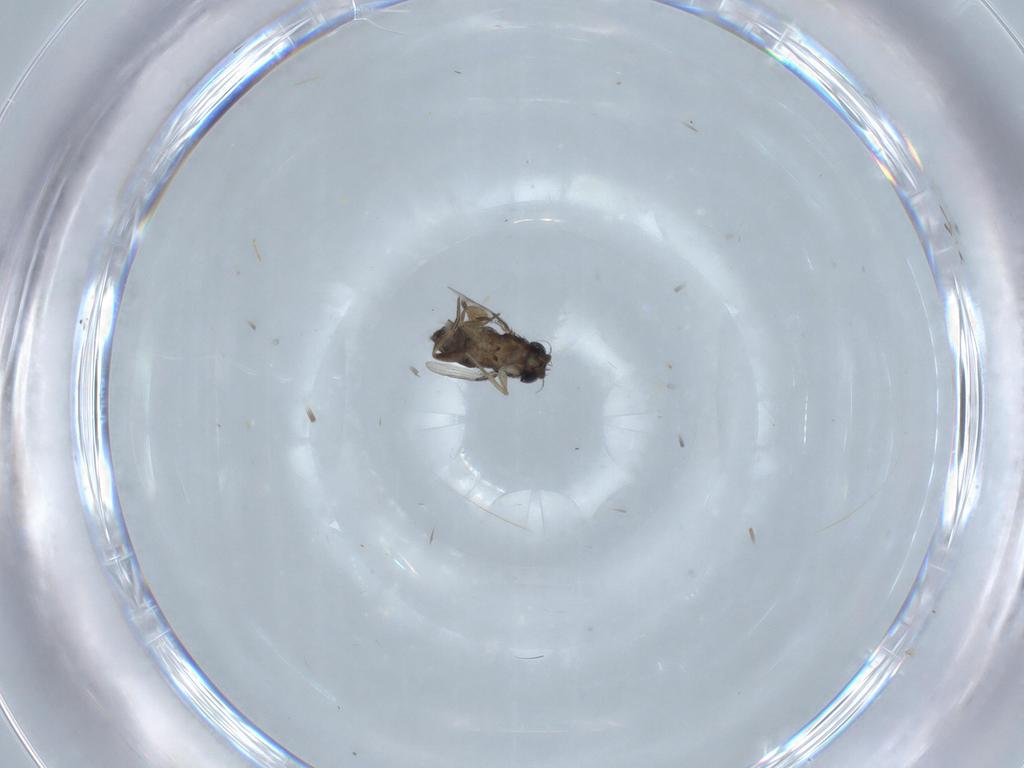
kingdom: Animalia
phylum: Arthropoda
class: Insecta
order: Diptera
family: Phoridae
